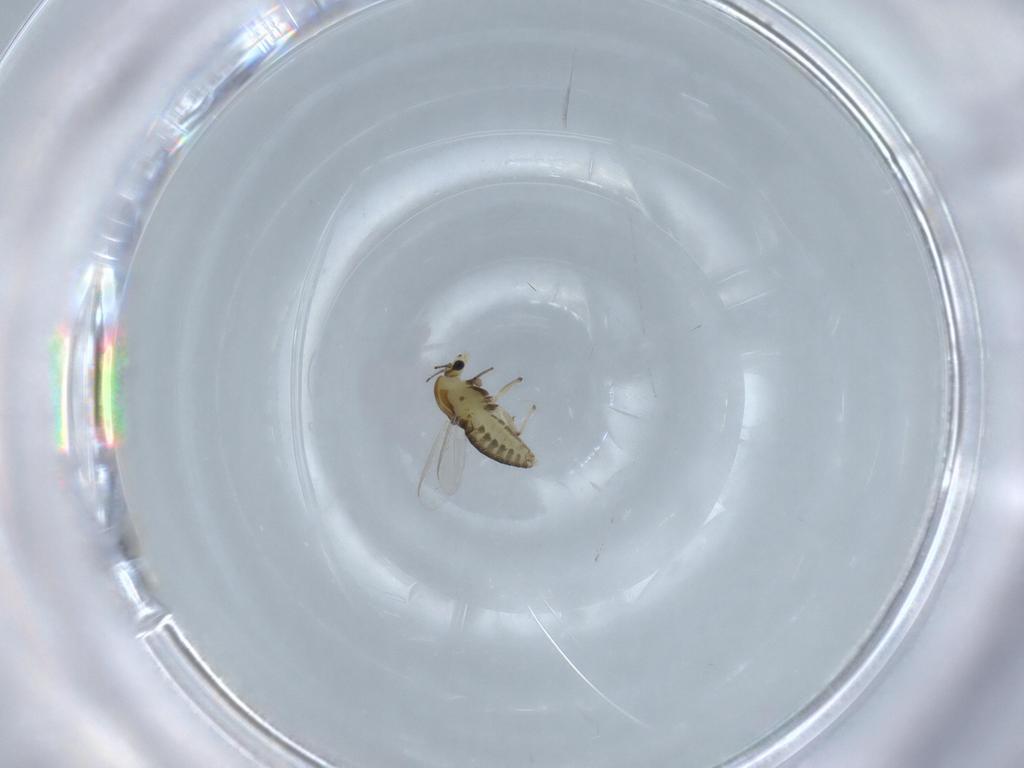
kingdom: Animalia
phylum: Arthropoda
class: Insecta
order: Diptera
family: Chironomidae
